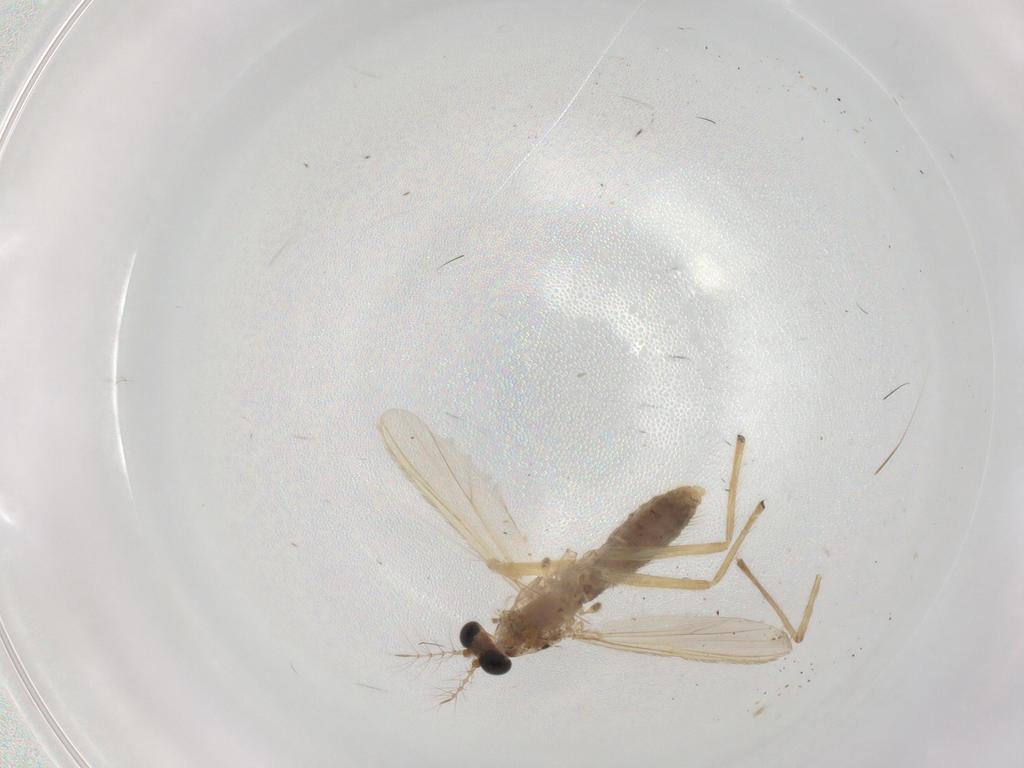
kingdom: Animalia
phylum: Arthropoda
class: Insecta
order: Diptera
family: Chironomidae
